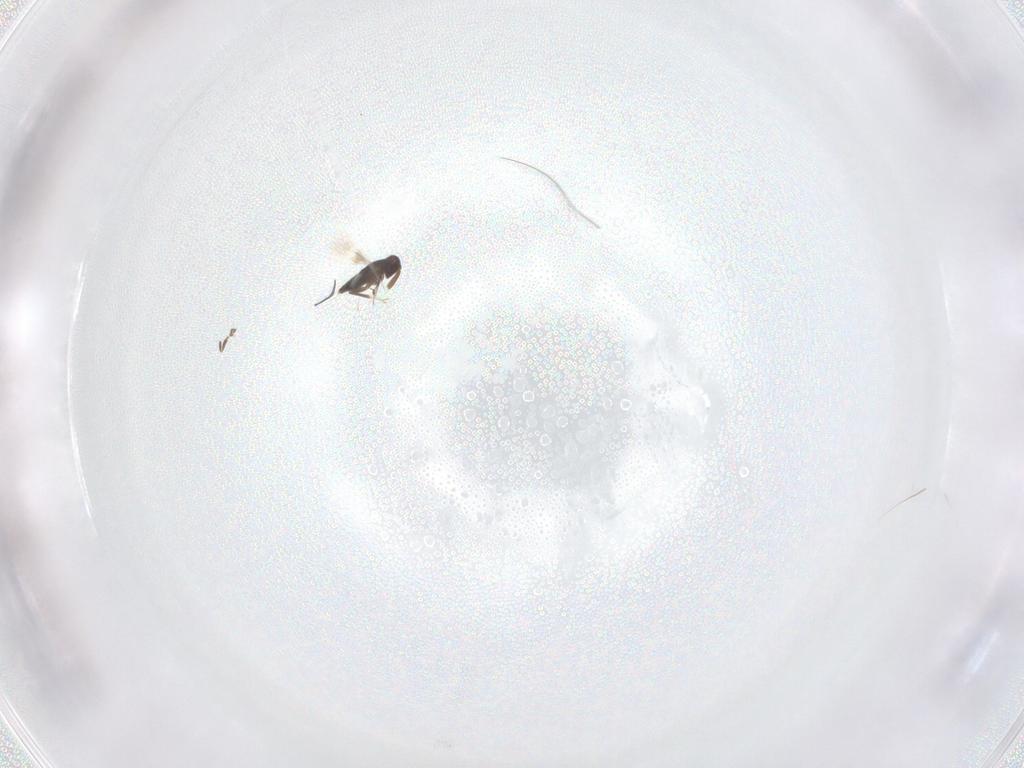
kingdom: Animalia
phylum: Arthropoda
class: Insecta
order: Hymenoptera
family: Signiphoridae
